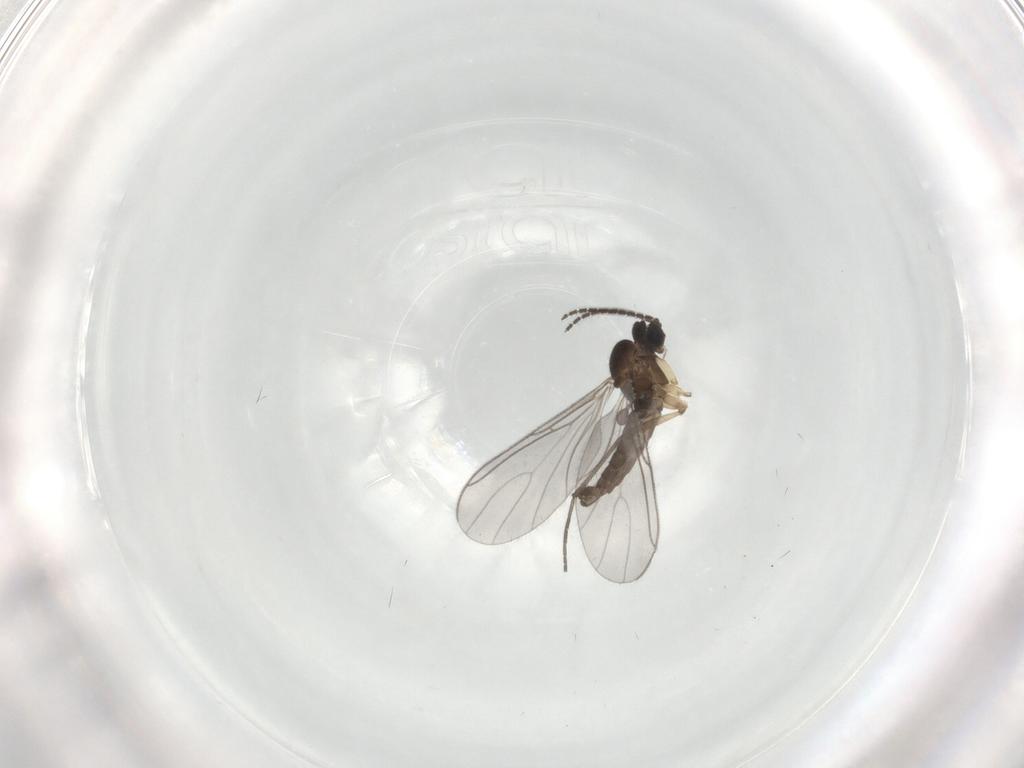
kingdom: Animalia
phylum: Arthropoda
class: Insecta
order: Diptera
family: Sciaridae
